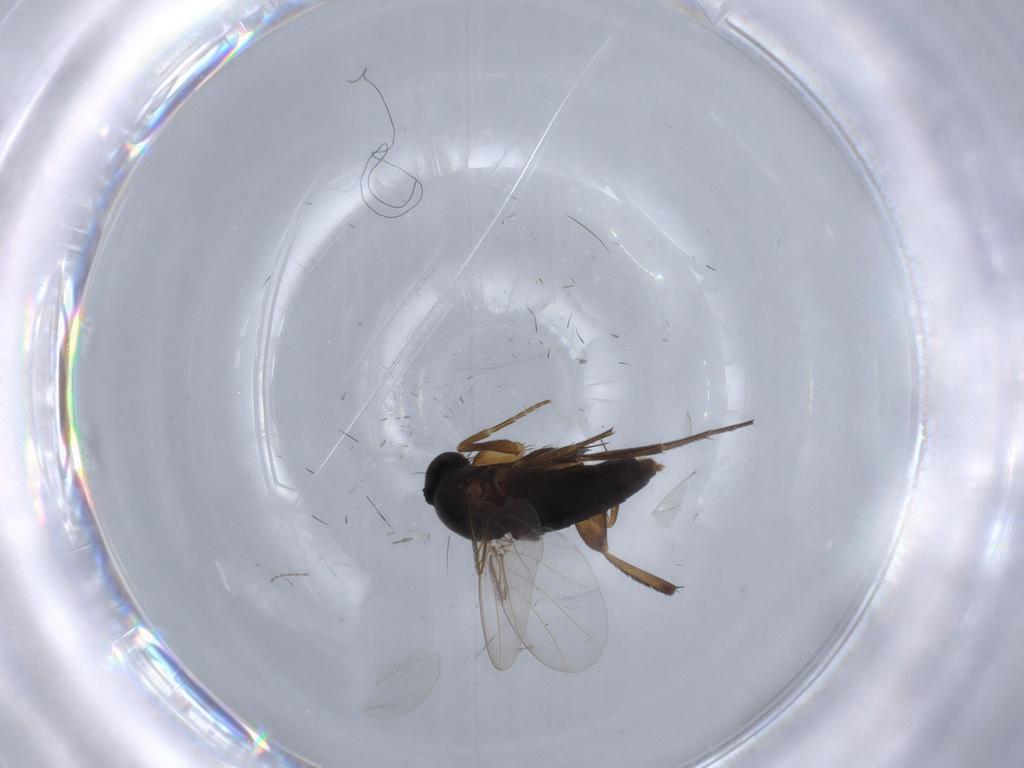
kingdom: Animalia
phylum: Arthropoda
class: Insecta
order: Diptera
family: Phoridae
